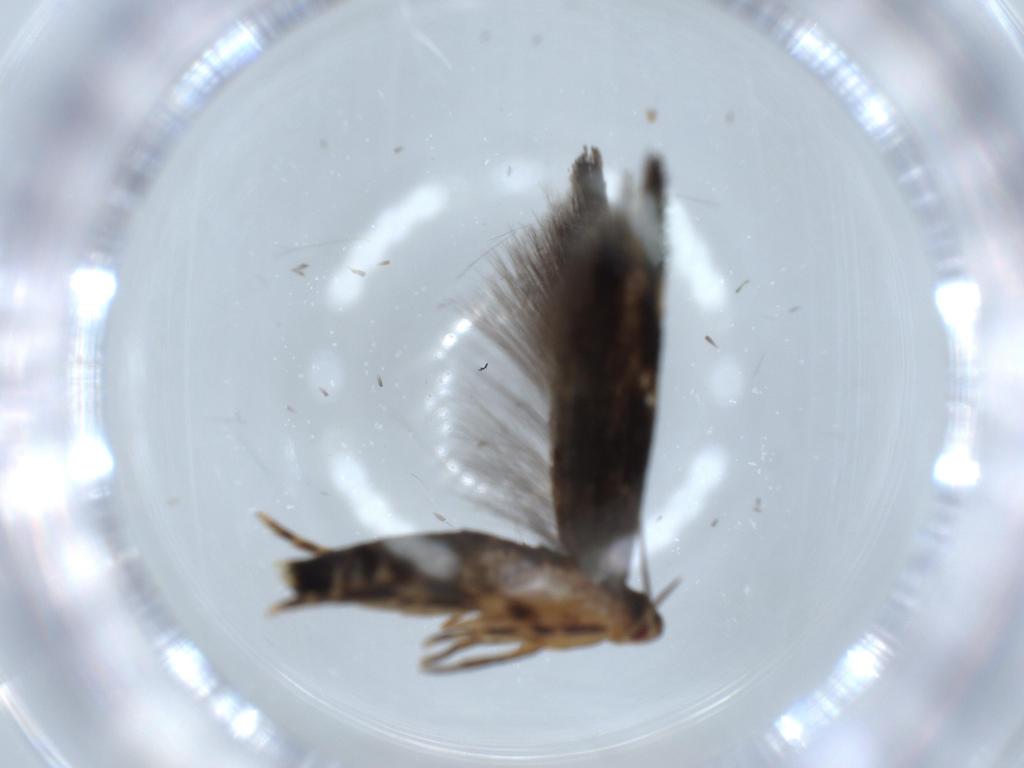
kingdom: Animalia
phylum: Arthropoda
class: Insecta
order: Lepidoptera
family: Momphidae
